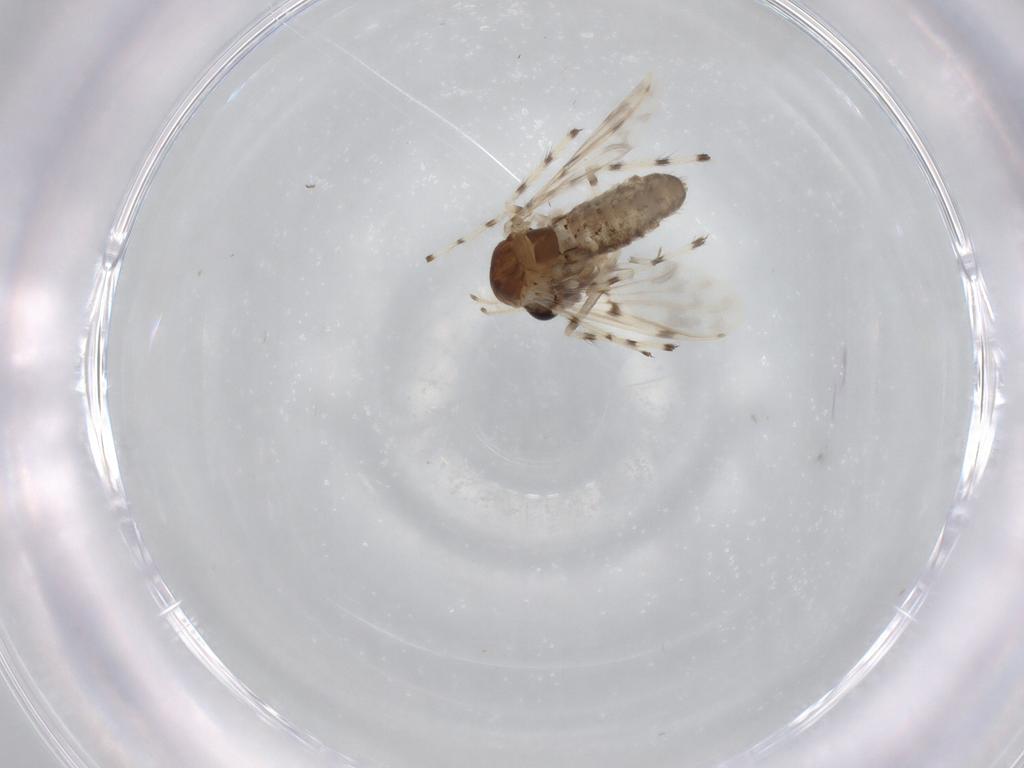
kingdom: Animalia
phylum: Arthropoda
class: Insecta
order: Diptera
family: Chironomidae
